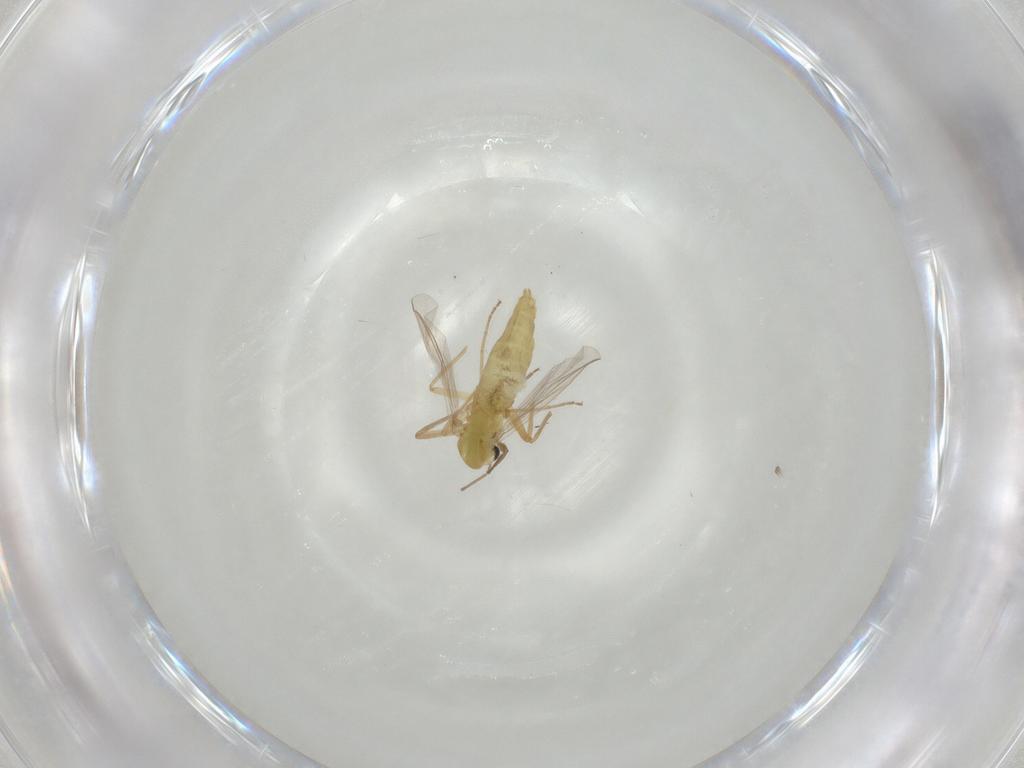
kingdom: Animalia
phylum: Arthropoda
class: Insecta
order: Diptera
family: Chironomidae
